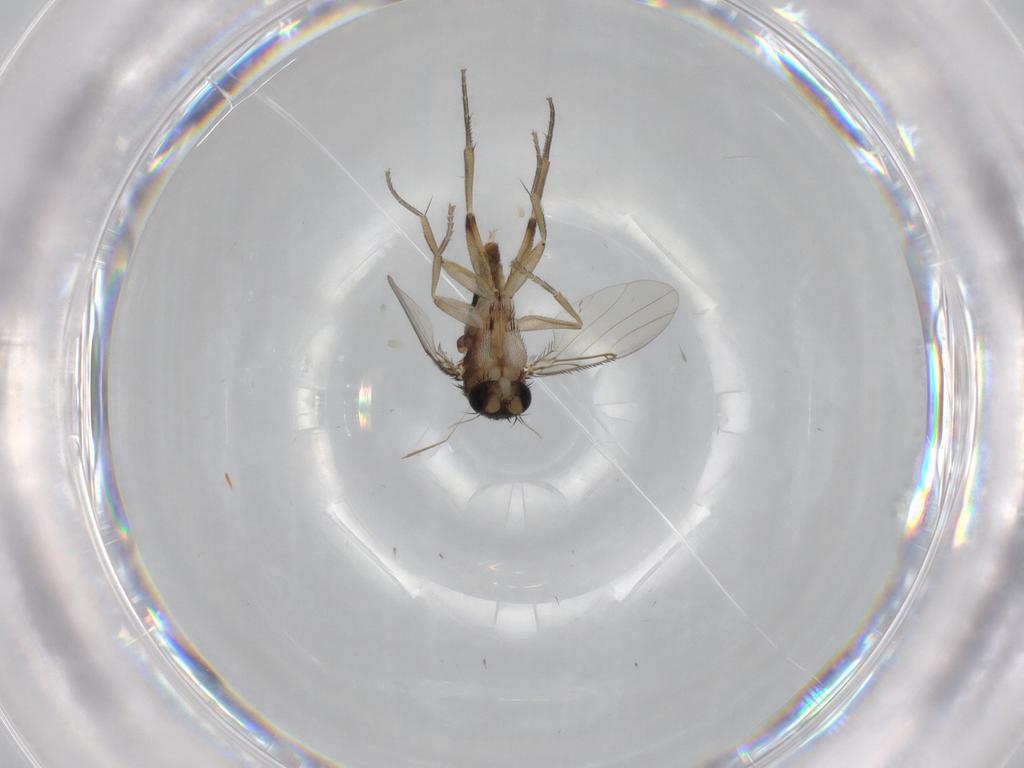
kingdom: Animalia
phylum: Arthropoda
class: Insecta
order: Diptera
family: Phoridae
